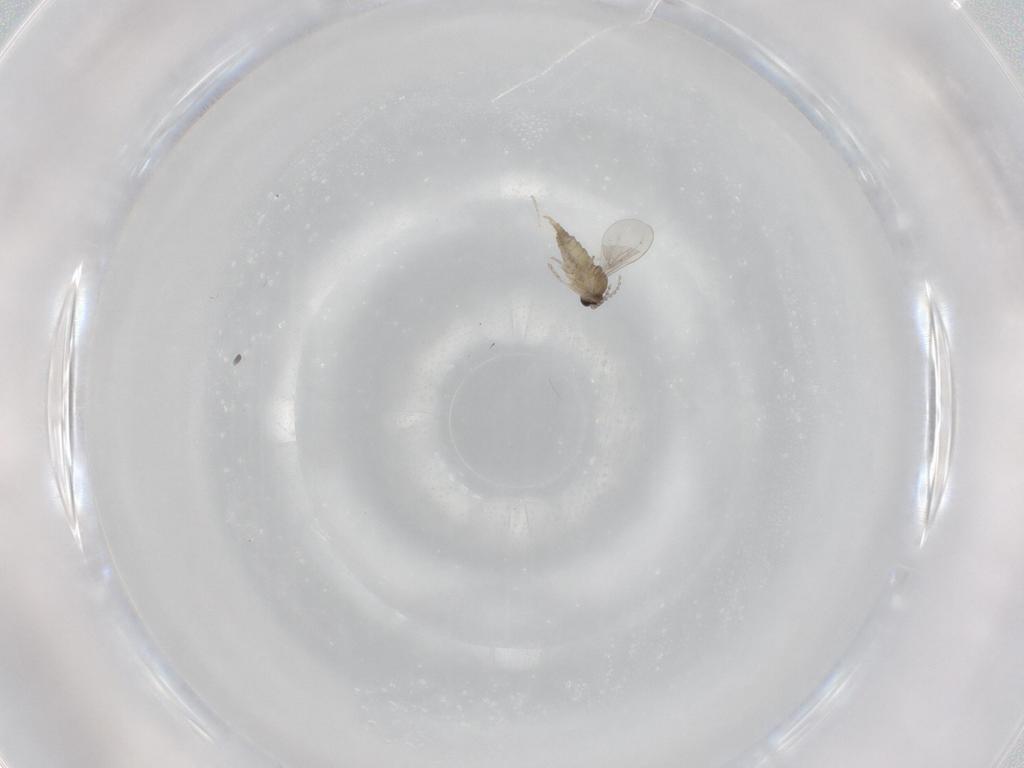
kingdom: Animalia
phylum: Arthropoda
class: Insecta
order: Diptera
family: Cecidomyiidae
